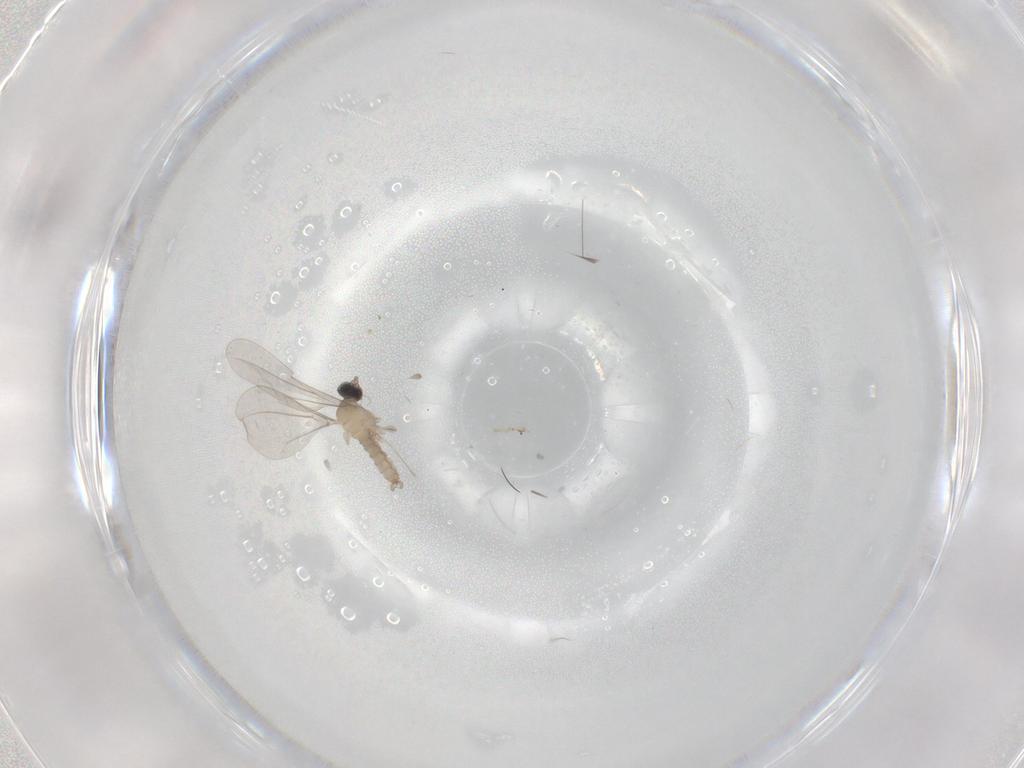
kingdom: Animalia
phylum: Arthropoda
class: Insecta
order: Diptera
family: Cecidomyiidae
